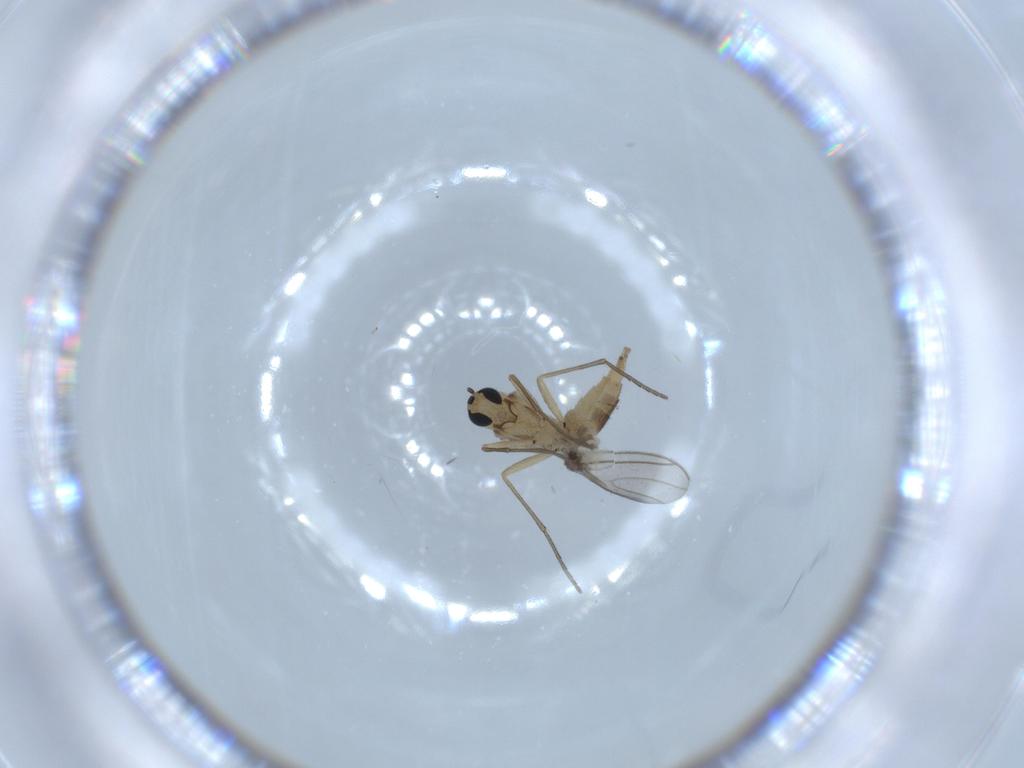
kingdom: Animalia
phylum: Arthropoda
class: Insecta
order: Diptera
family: Sciaridae
